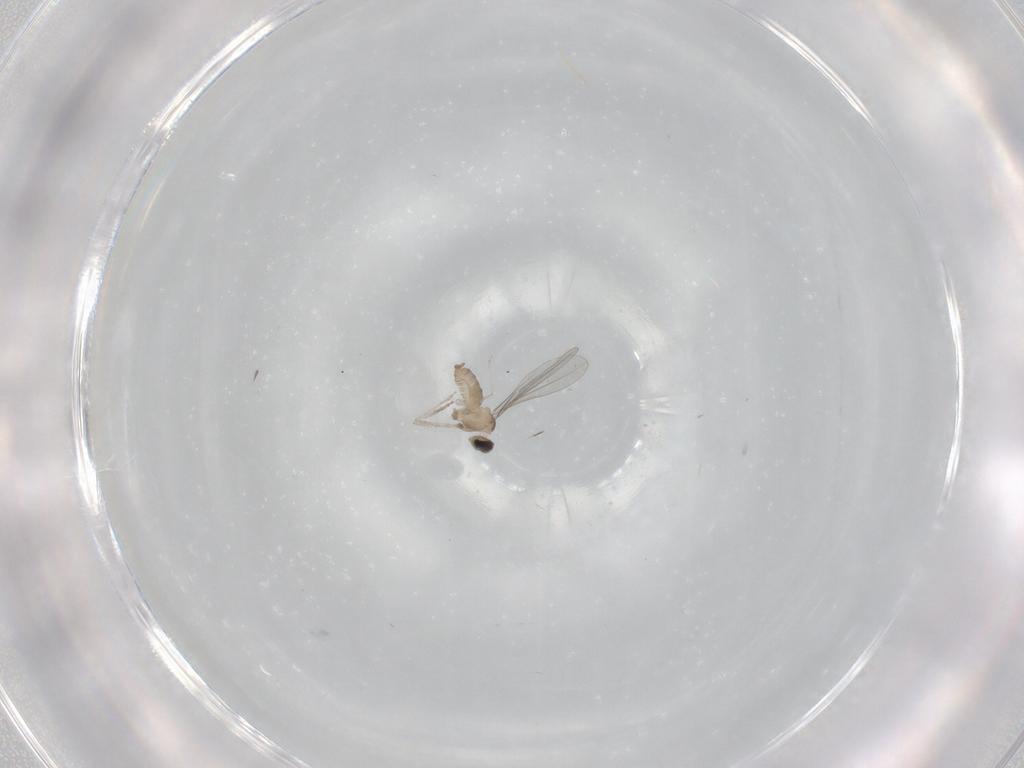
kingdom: Animalia
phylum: Arthropoda
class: Insecta
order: Diptera
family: Cecidomyiidae
